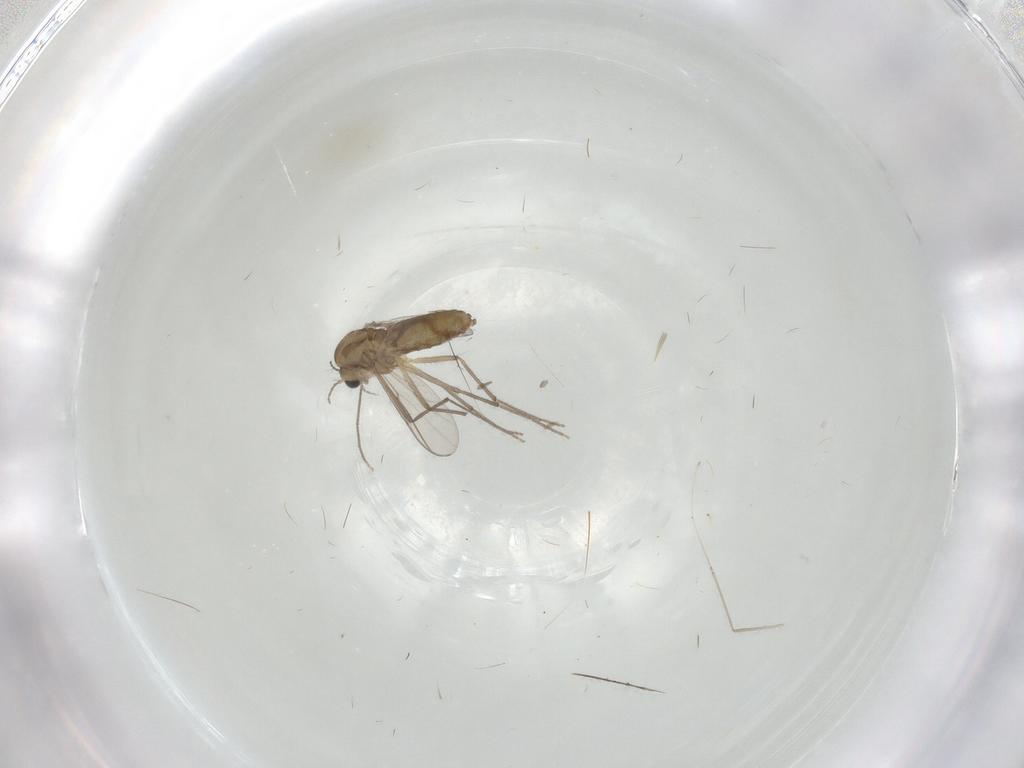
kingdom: Animalia
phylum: Arthropoda
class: Insecta
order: Diptera
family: Chironomidae
